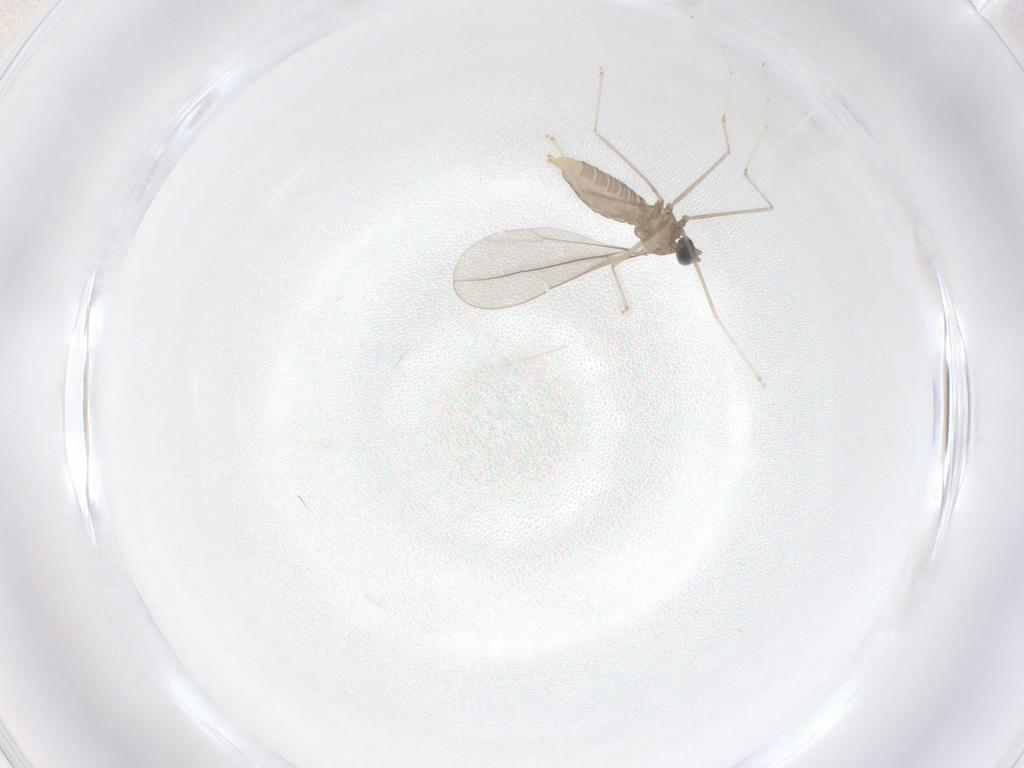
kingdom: Animalia
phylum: Arthropoda
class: Insecta
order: Diptera
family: Cecidomyiidae
